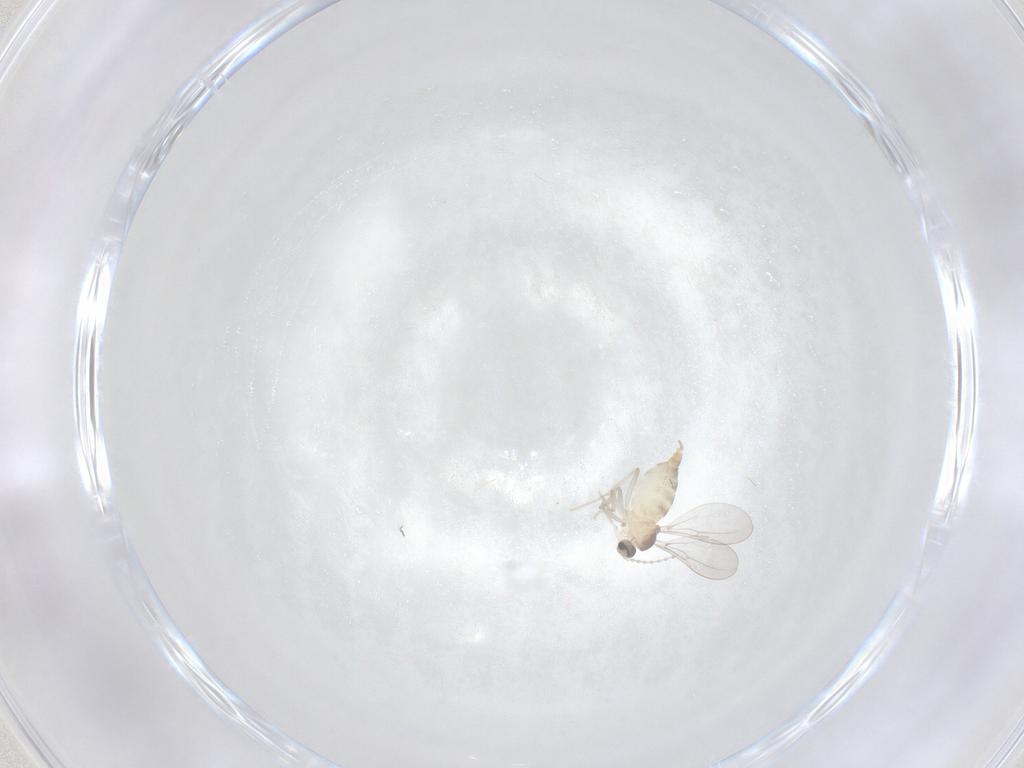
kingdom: Animalia
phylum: Arthropoda
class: Insecta
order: Diptera
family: Cecidomyiidae
